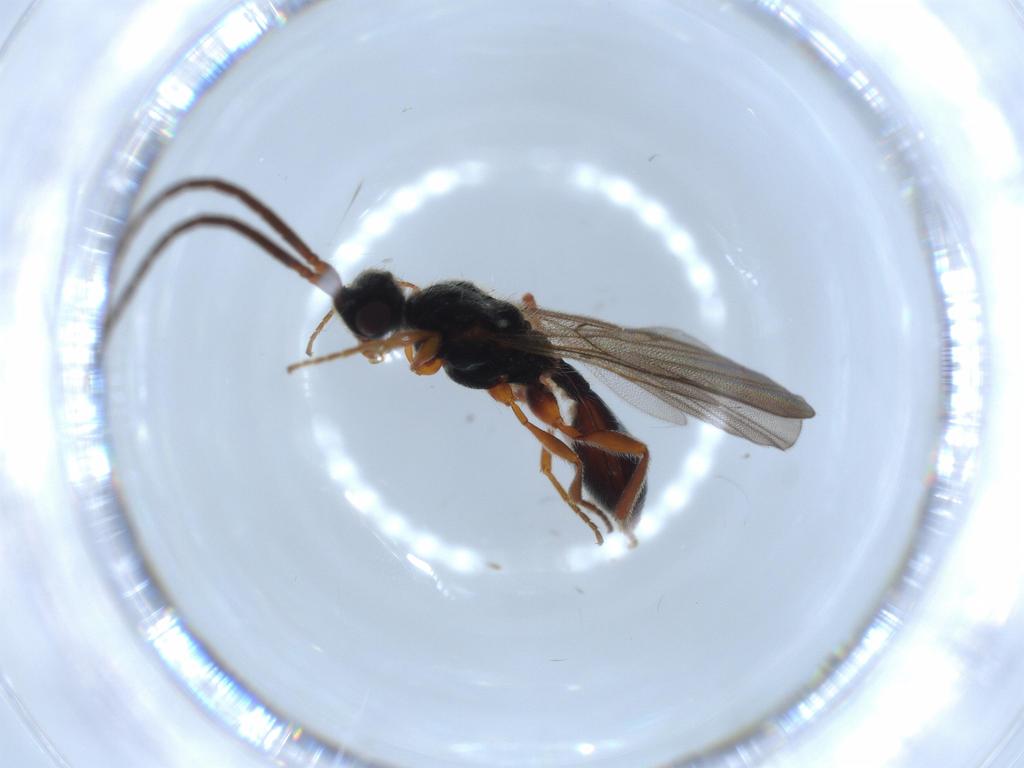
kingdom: Animalia
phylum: Arthropoda
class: Insecta
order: Hymenoptera
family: Diapriidae
